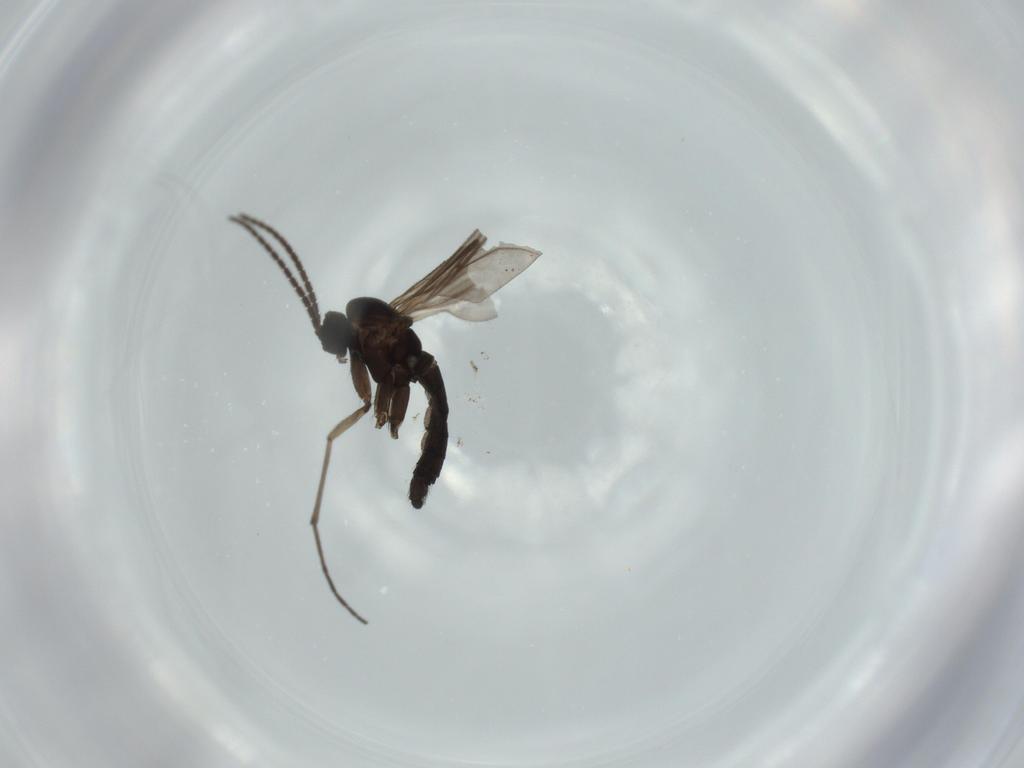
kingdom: Animalia
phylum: Arthropoda
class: Insecta
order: Diptera
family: Sciaridae
